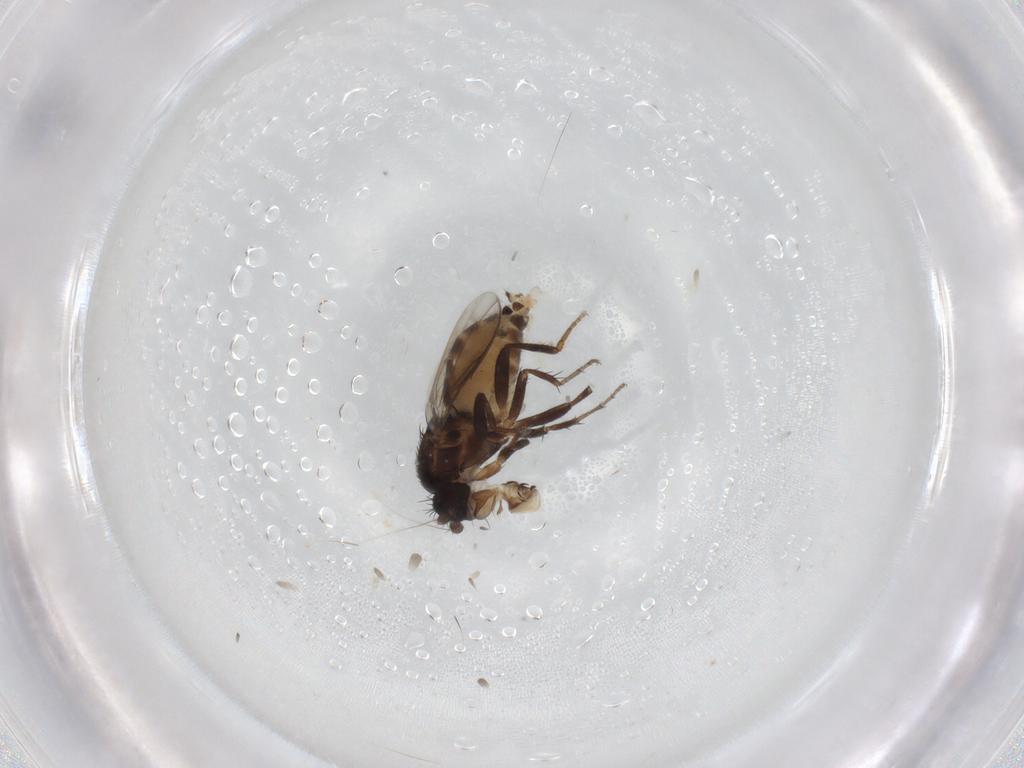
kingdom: Animalia
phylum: Arthropoda
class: Insecta
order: Diptera
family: Sphaeroceridae
